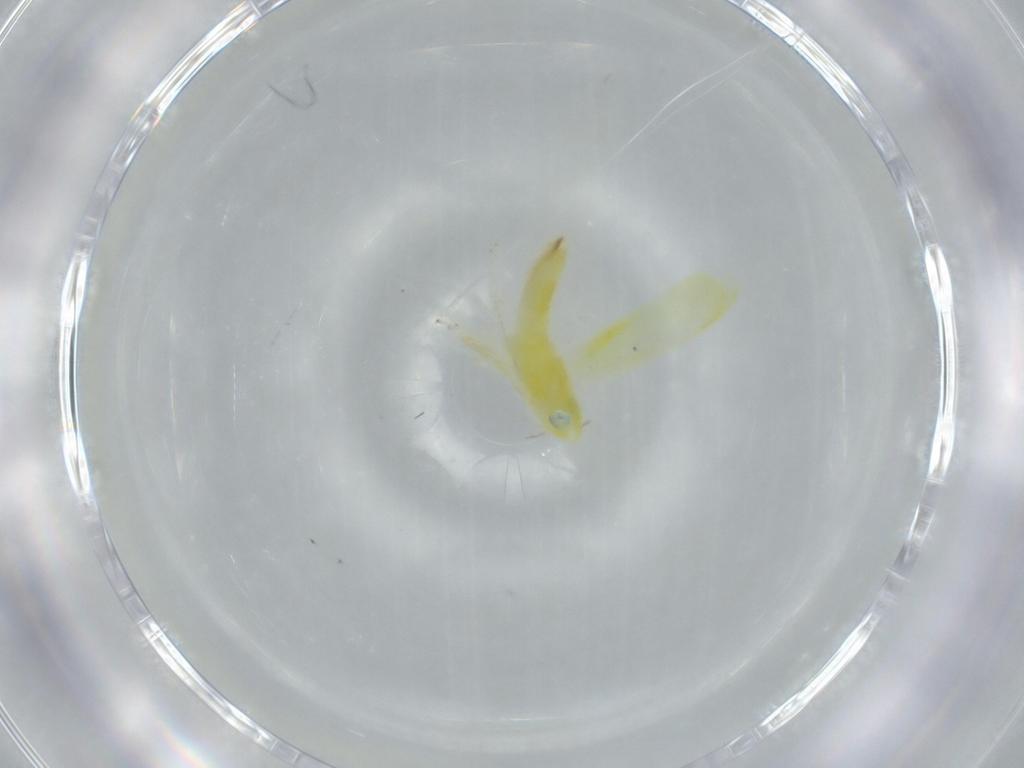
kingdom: Animalia
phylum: Arthropoda
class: Insecta
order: Hemiptera
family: Cicadellidae
